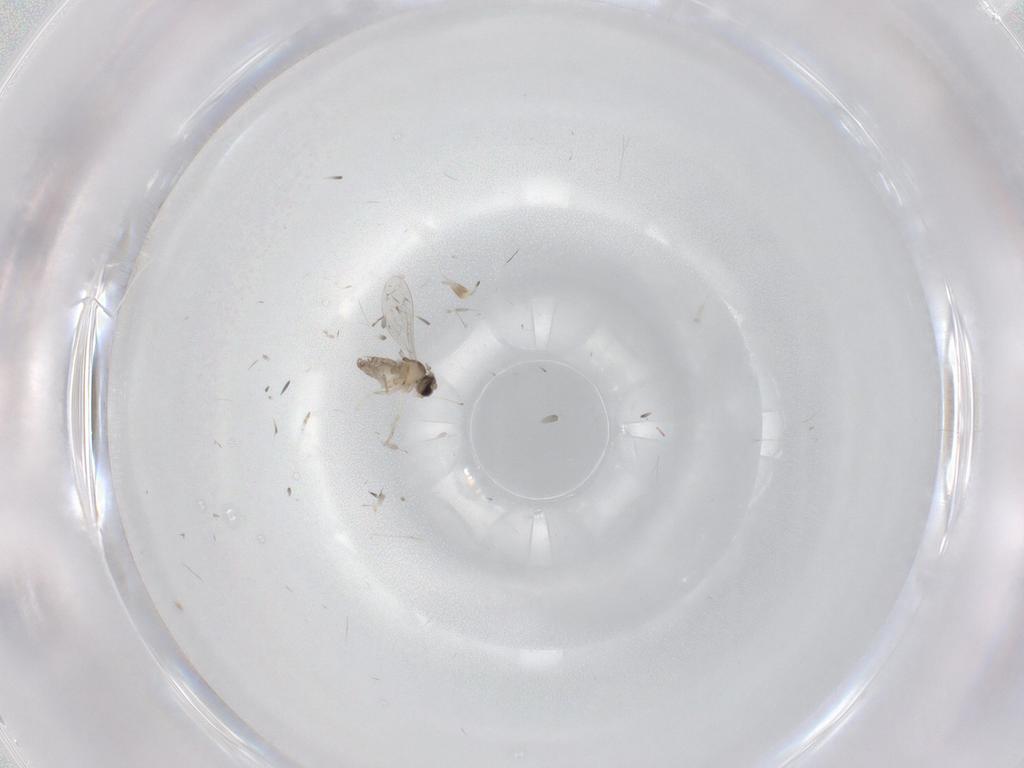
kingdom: Animalia
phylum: Arthropoda
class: Insecta
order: Diptera
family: Cecidomyiidae
